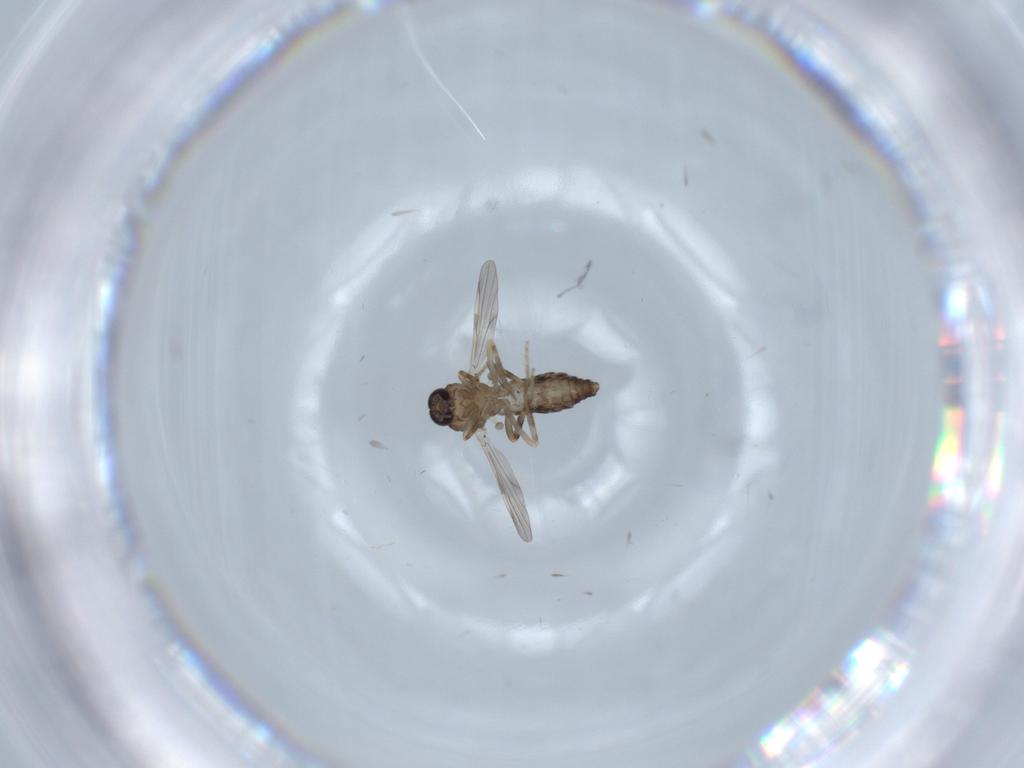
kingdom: Animalia
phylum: Arthropoda
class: Insecta
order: Diptera
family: Ceratopogonidae
